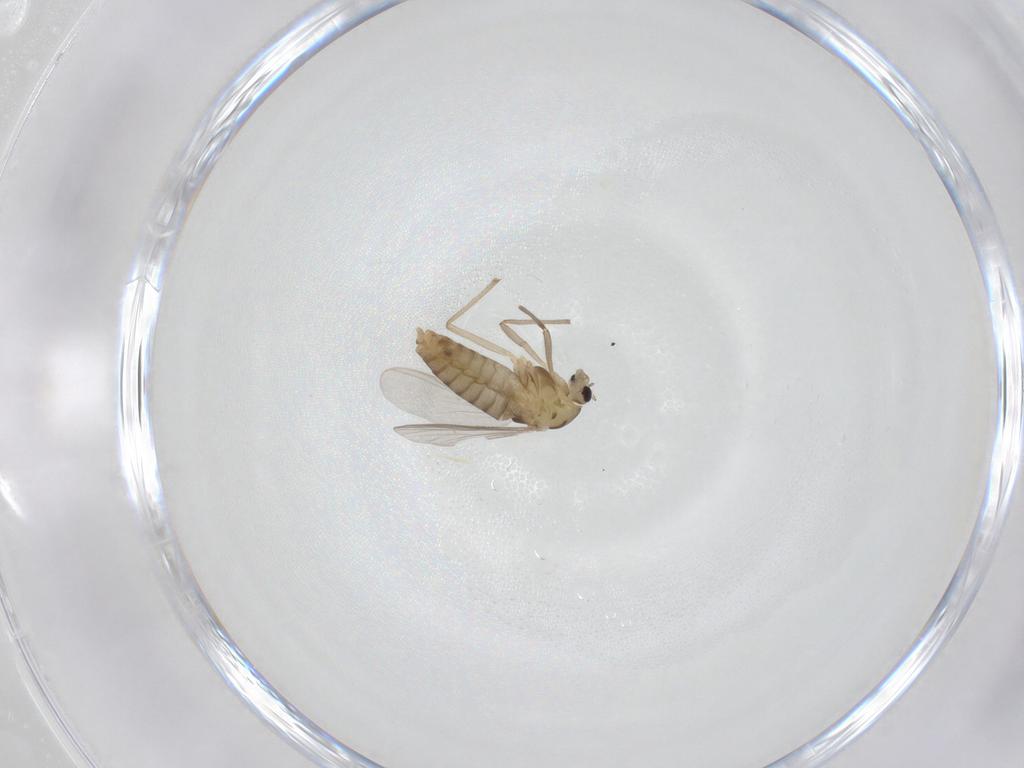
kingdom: Animalia
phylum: Arthropoda
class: Insecta
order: Diptera
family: Chironomidae
